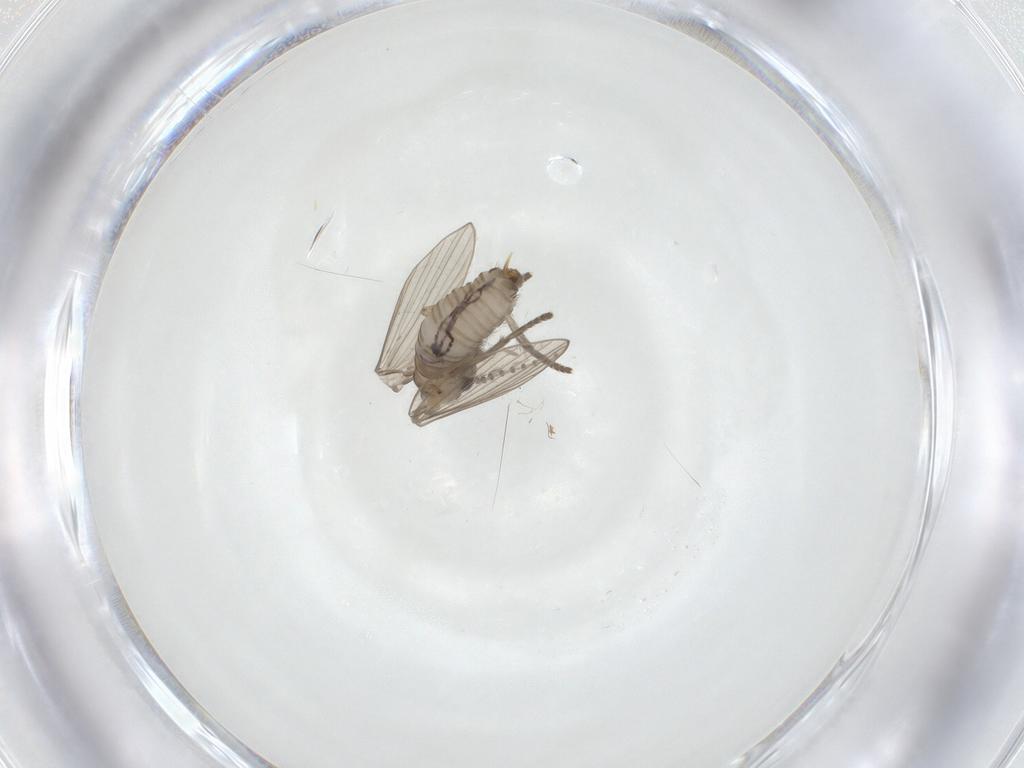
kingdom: Animalia
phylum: Arthropoda
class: Insecta
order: Diptera
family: Psychodidae
